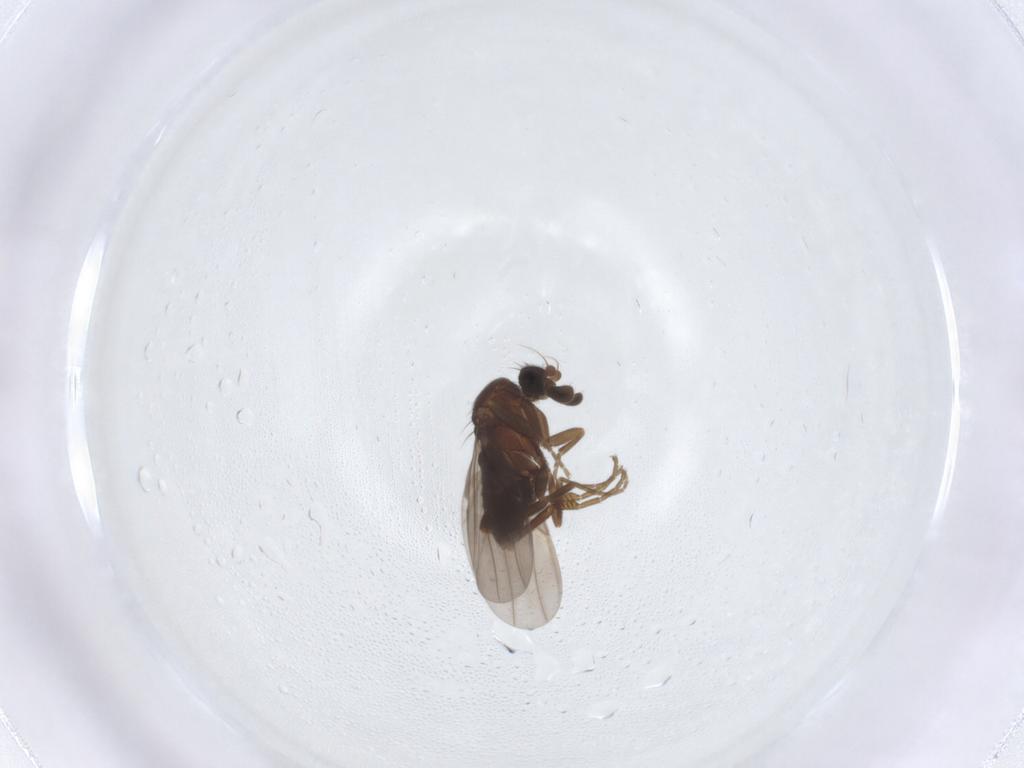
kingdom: Animalia
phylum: Arthropoda
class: Insecta
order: Diptera
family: Phoridae
